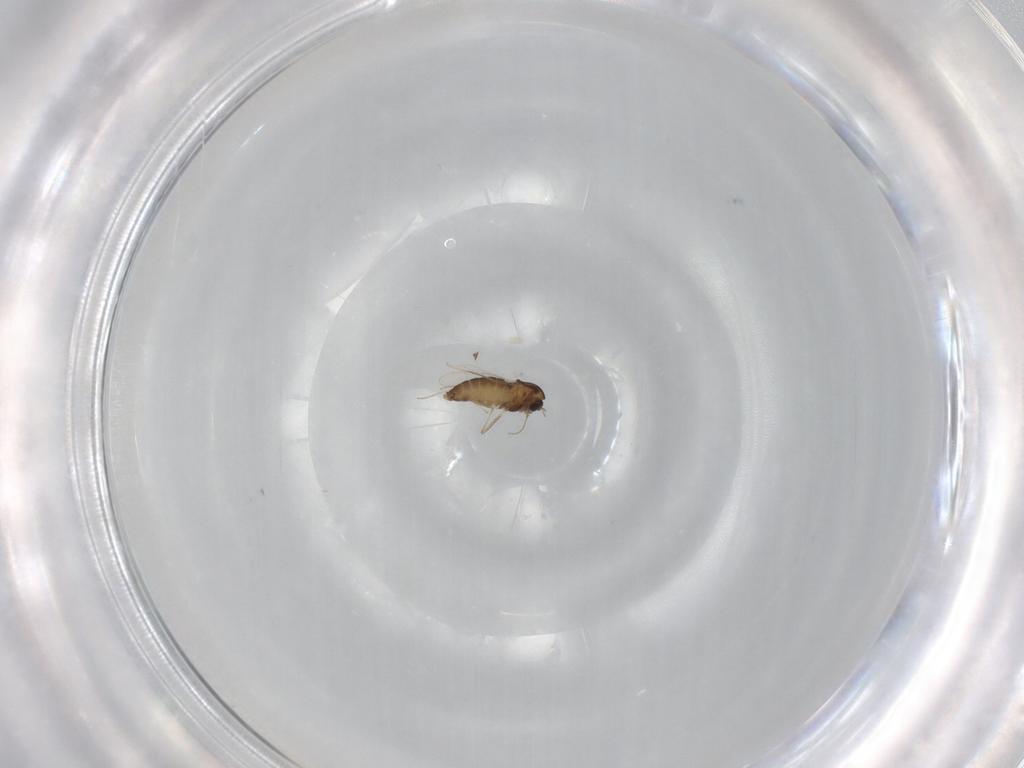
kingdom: Animalia
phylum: Arthropoda
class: Insecta
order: Diptera
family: Chironomidae
